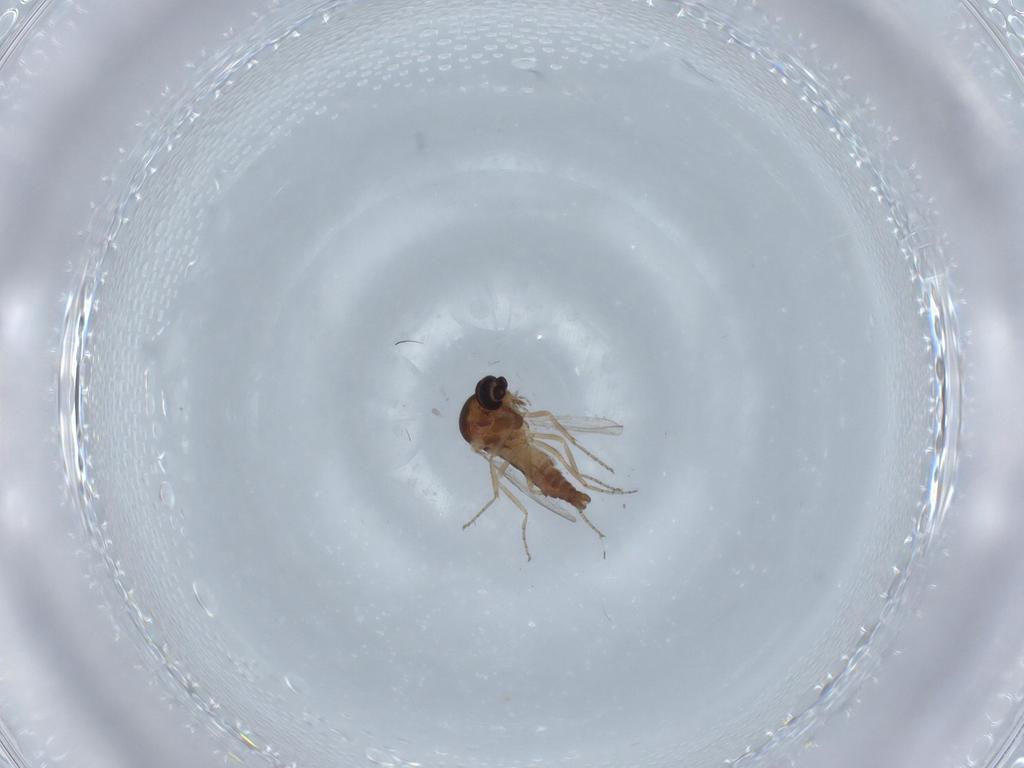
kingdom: Animalia
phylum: Arthropoda
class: Insecta
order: Diptera
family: Ceratopogonidae
